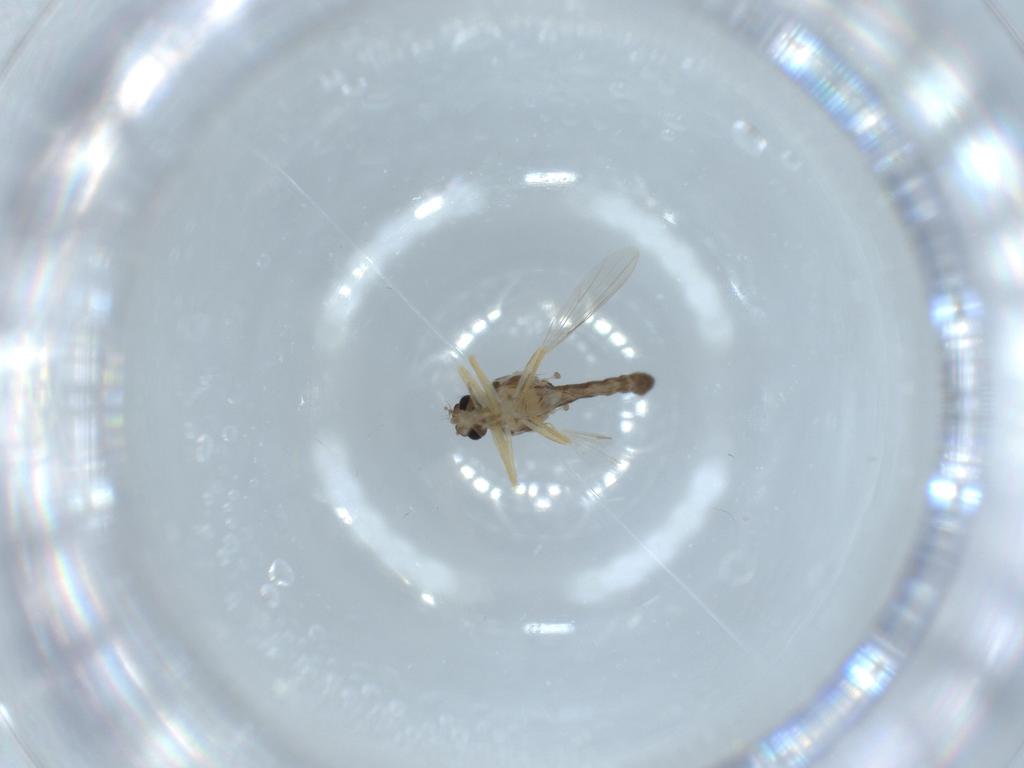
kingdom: Animalia
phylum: Arthropoda
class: Insecta
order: Diptera
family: Ceratopogonidae
